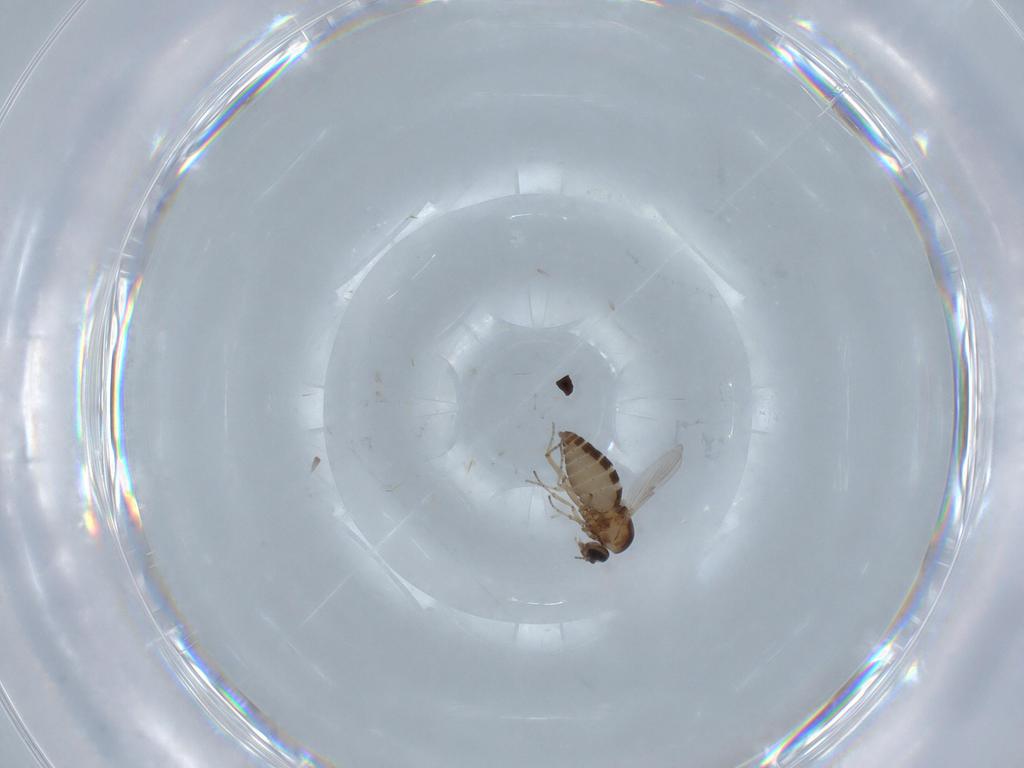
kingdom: Animalia
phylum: Arthropoda
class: Insecta
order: Diptera
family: Ceratopogonidae
